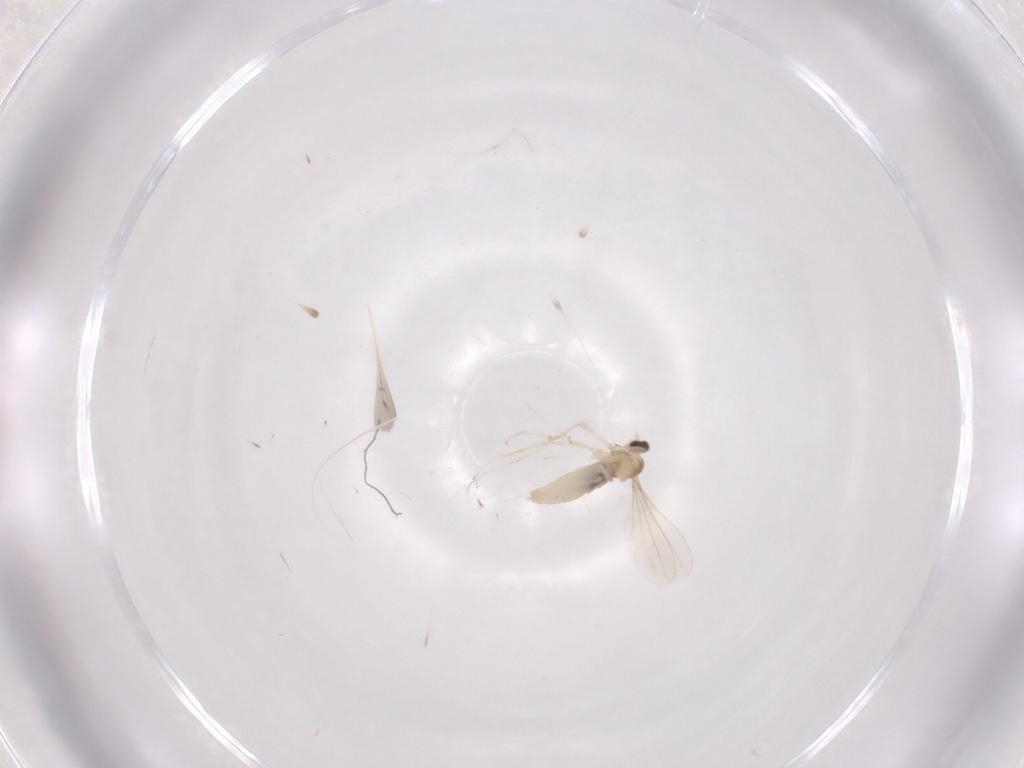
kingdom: Animalia
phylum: Arthropoda
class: Insecta
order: Diptera
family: Cecidomyiidae
